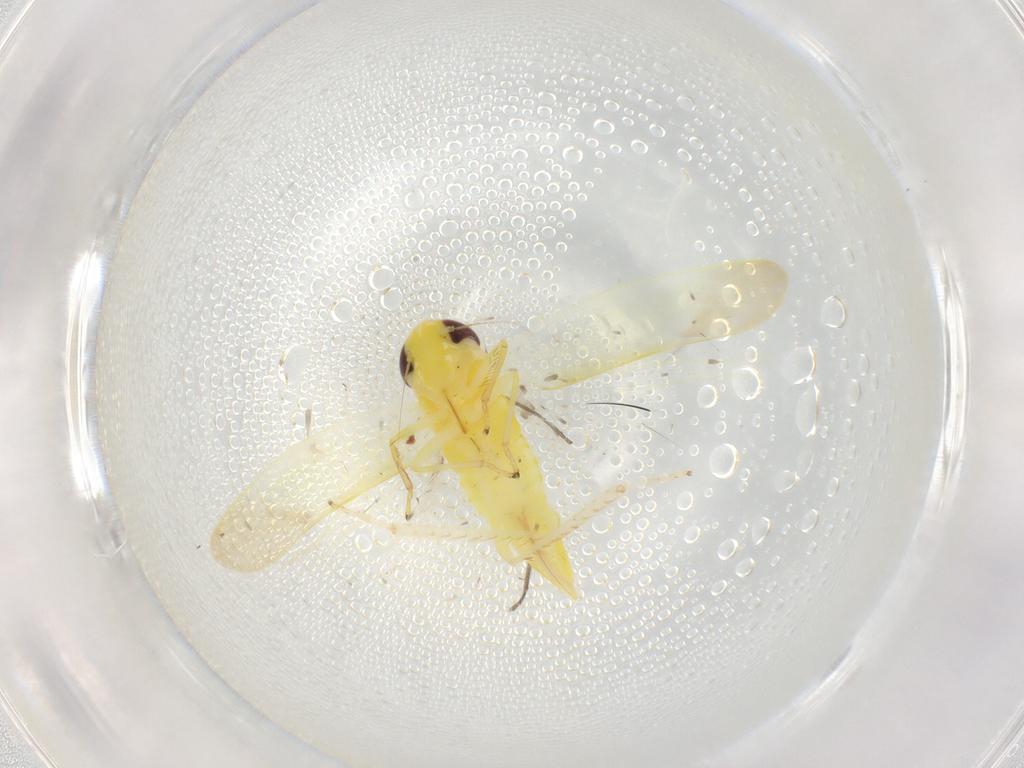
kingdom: Animalia
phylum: Arthropoda
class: Insecta
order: Hemiptera
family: Cicadellidae
